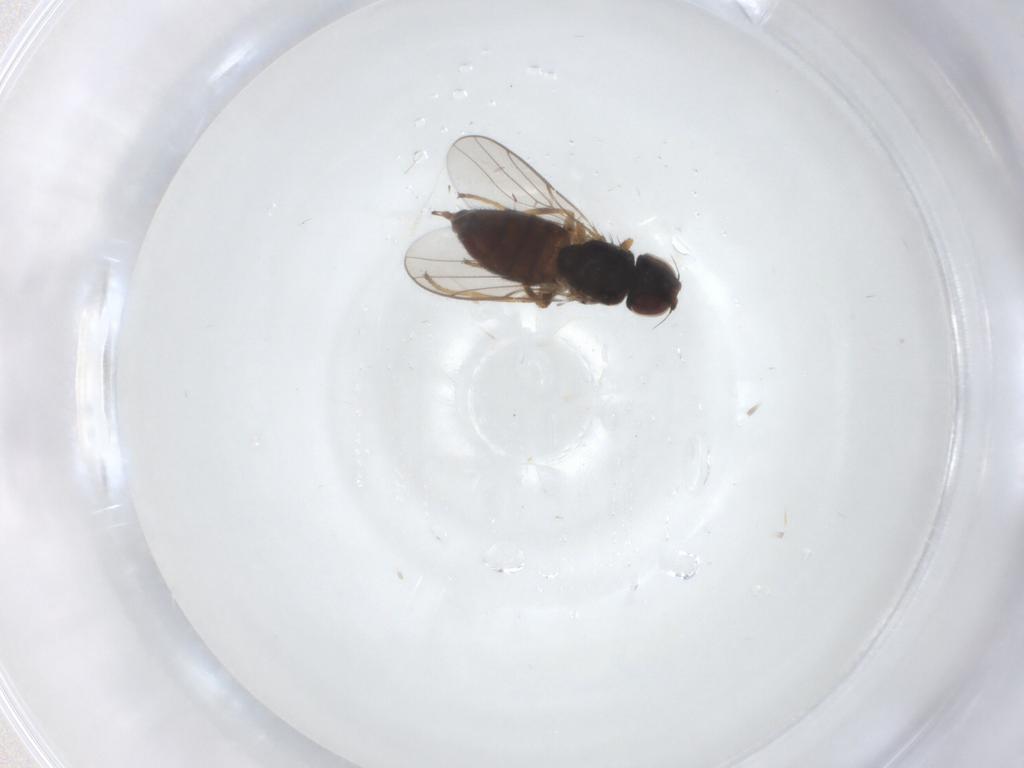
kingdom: Animalia
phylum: Arthropoda
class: Insecta
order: Diptera
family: Chloropidae
